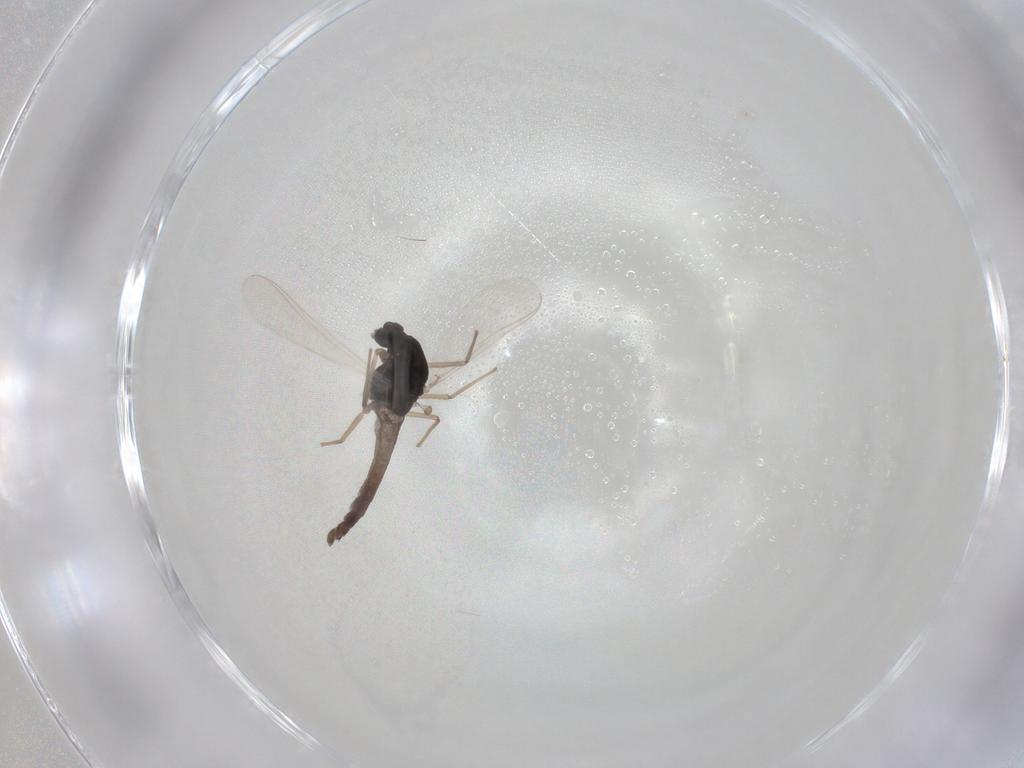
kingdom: Animalia
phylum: Arthropoda
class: Insecta
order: Diptera
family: Chironomidae
